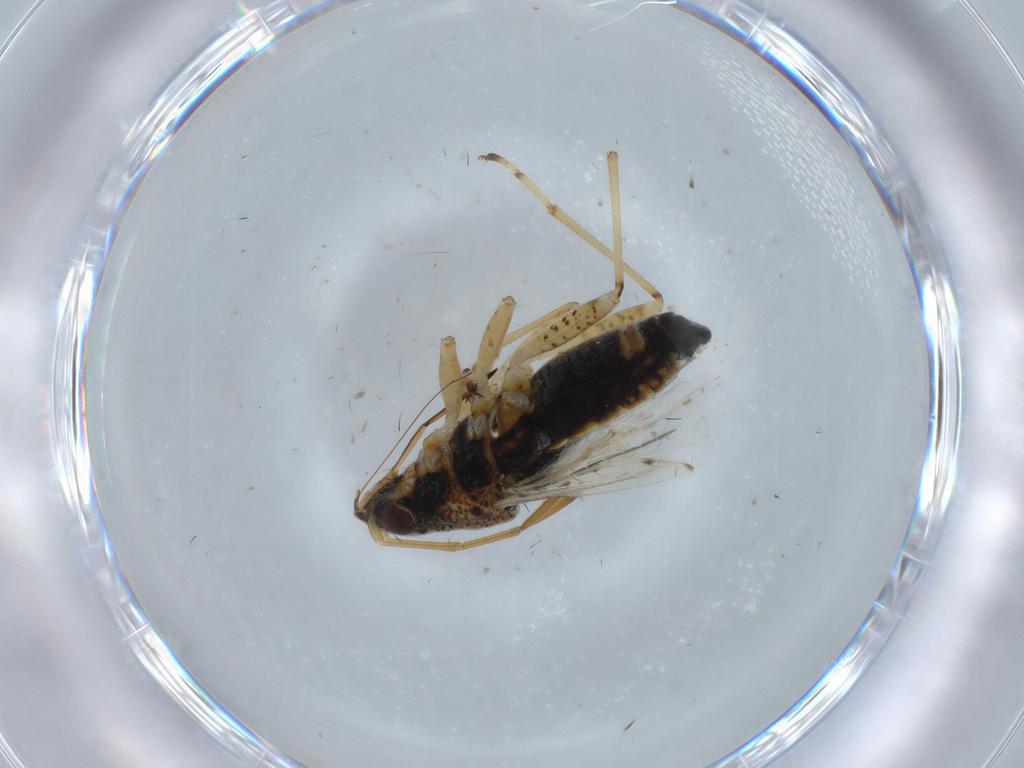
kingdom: Animalia
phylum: Arthropoda
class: Insecta
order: Hemiptera
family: Lygaeidae
